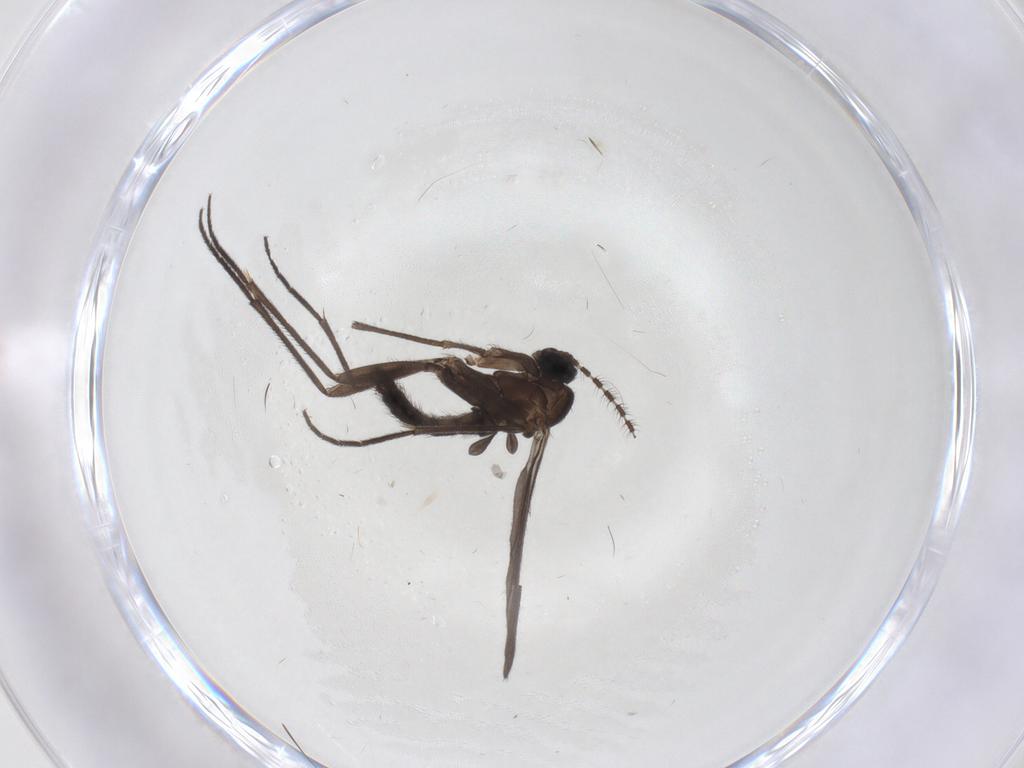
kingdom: Animalia
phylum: Arthropoda
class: Insecta
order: Diptera
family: Sciaridae
